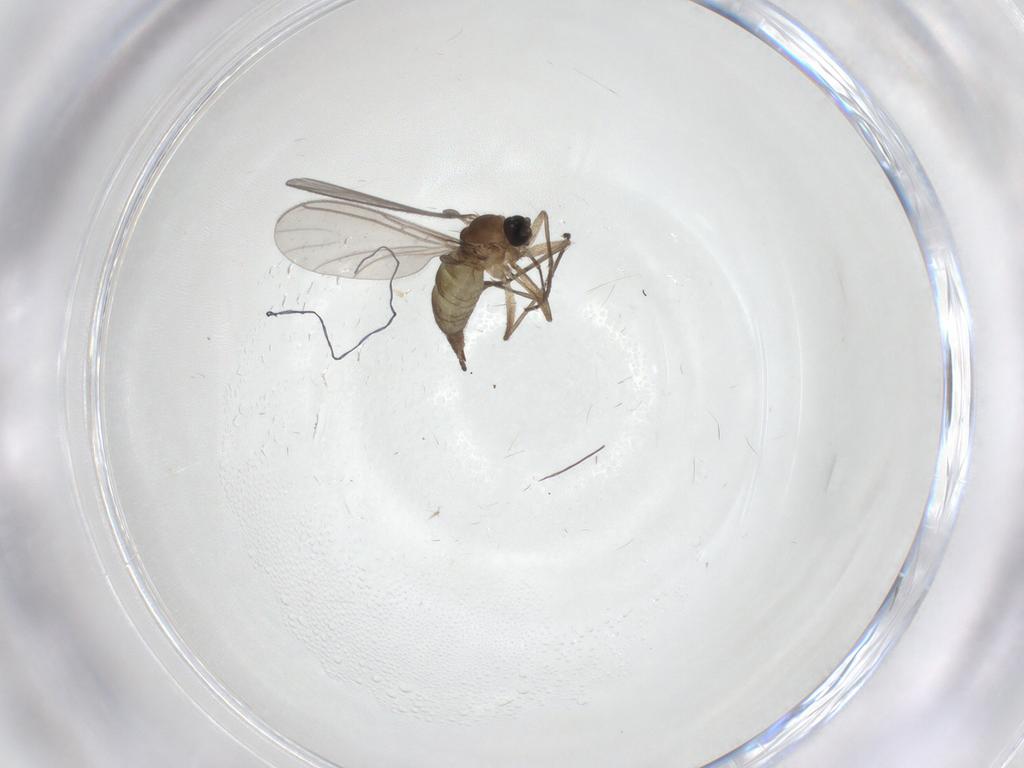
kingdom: Animalia
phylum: Arthropoda
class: Insecta
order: Diptera
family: Sciaridae
